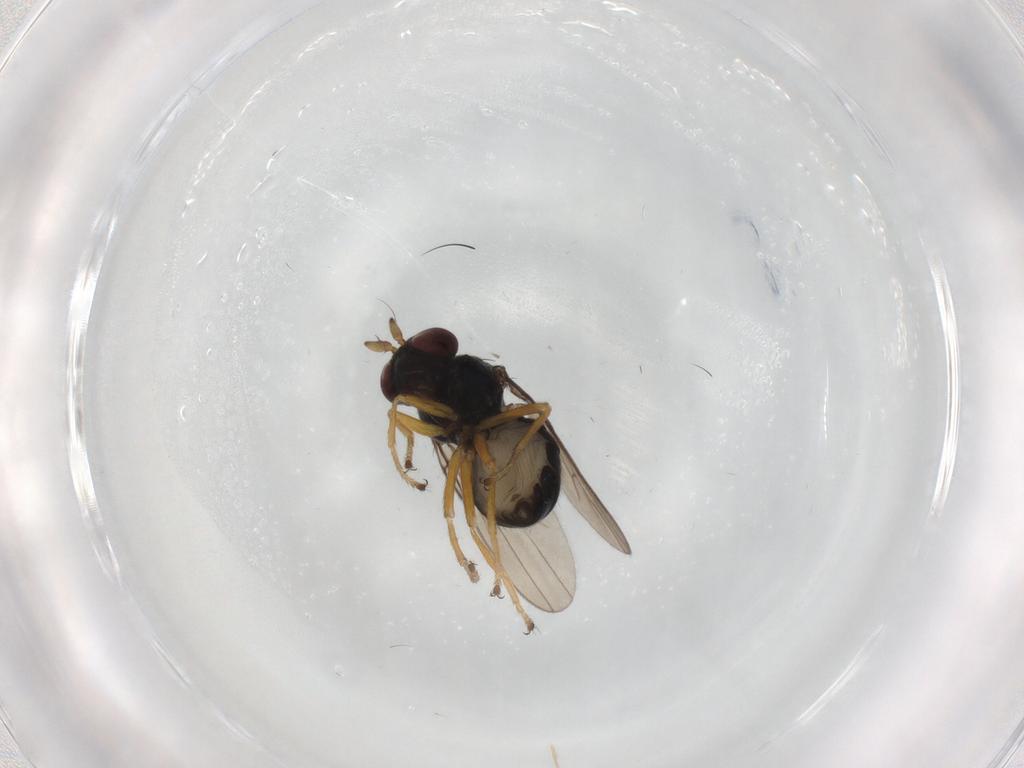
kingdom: Animalia
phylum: Arthropoda
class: Insecta
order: Diptera
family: Ephydridae
